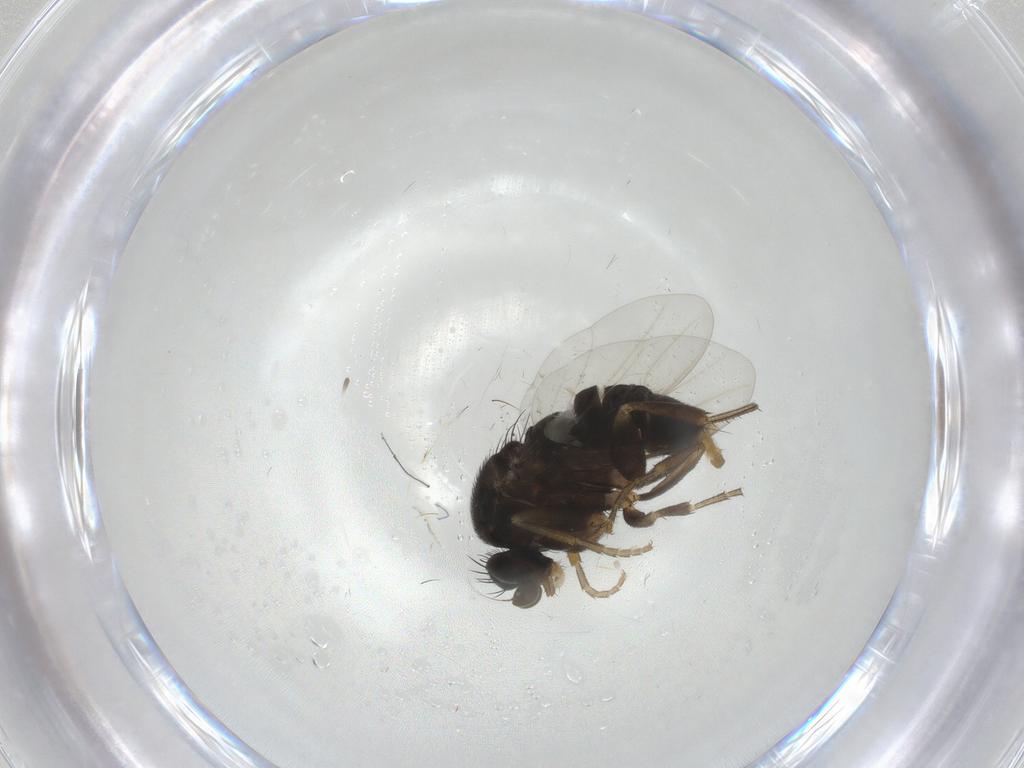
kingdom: Animalia
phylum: Arthropoda
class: Insecta
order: Diptera
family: Phoridae
